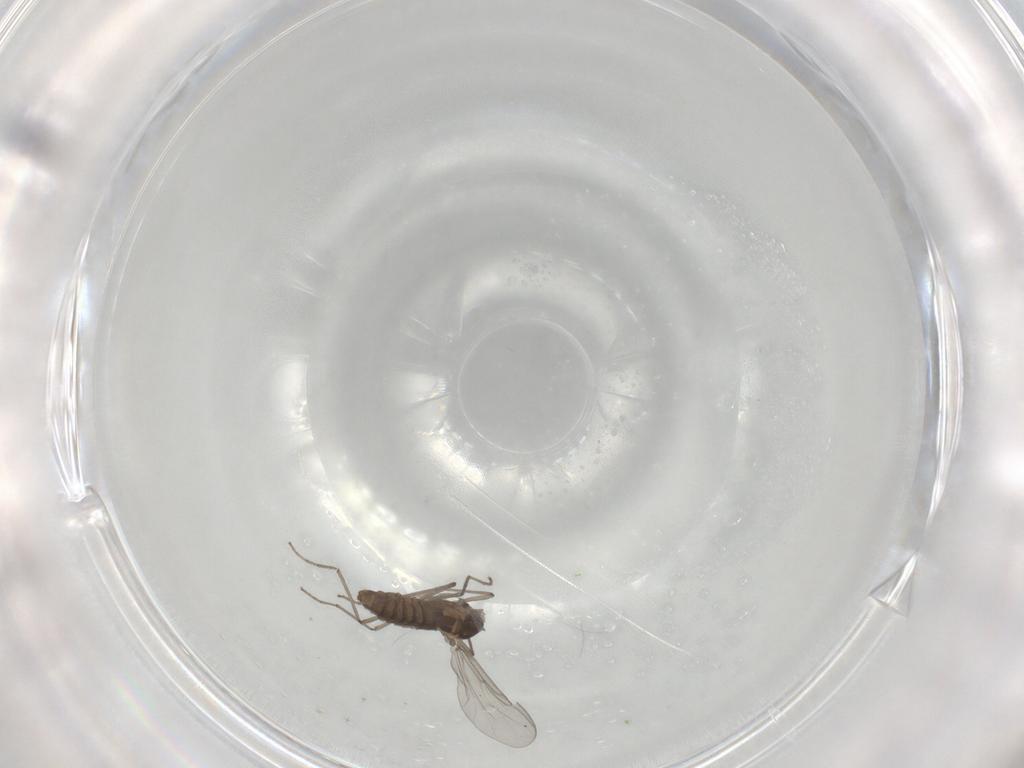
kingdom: Animalia
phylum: Arthropoda
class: Insecta
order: Diptera
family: Chironomidae
